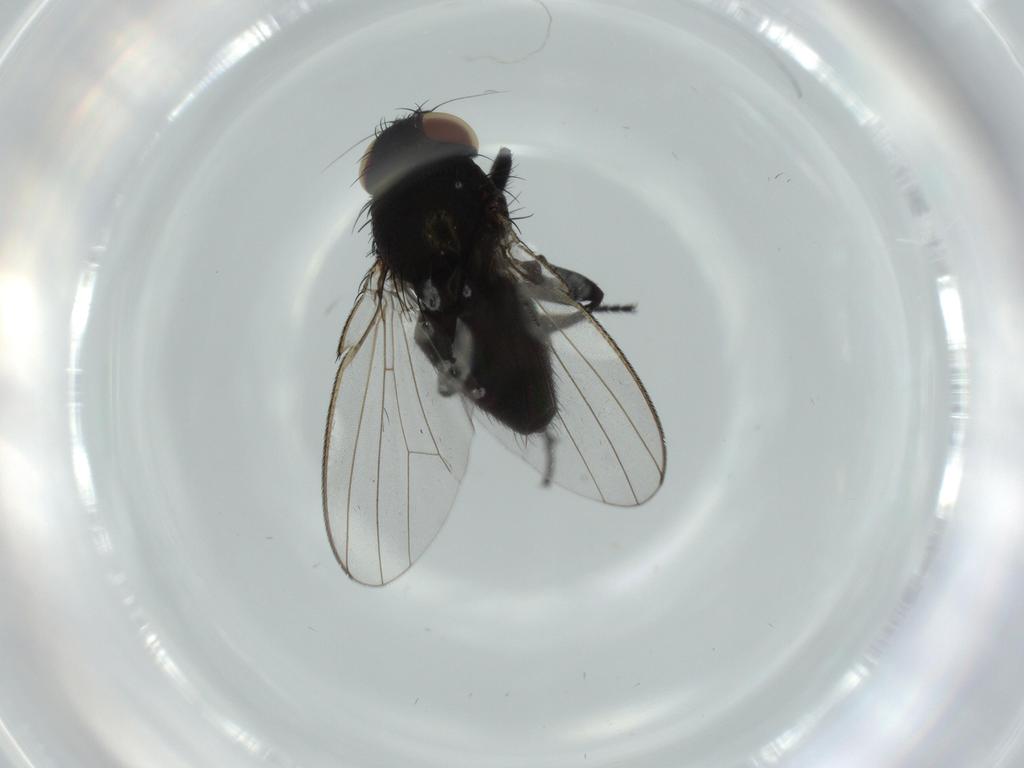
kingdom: Animalia
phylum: Arthropoda
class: Insecta
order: Diptera
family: Milichiidae
